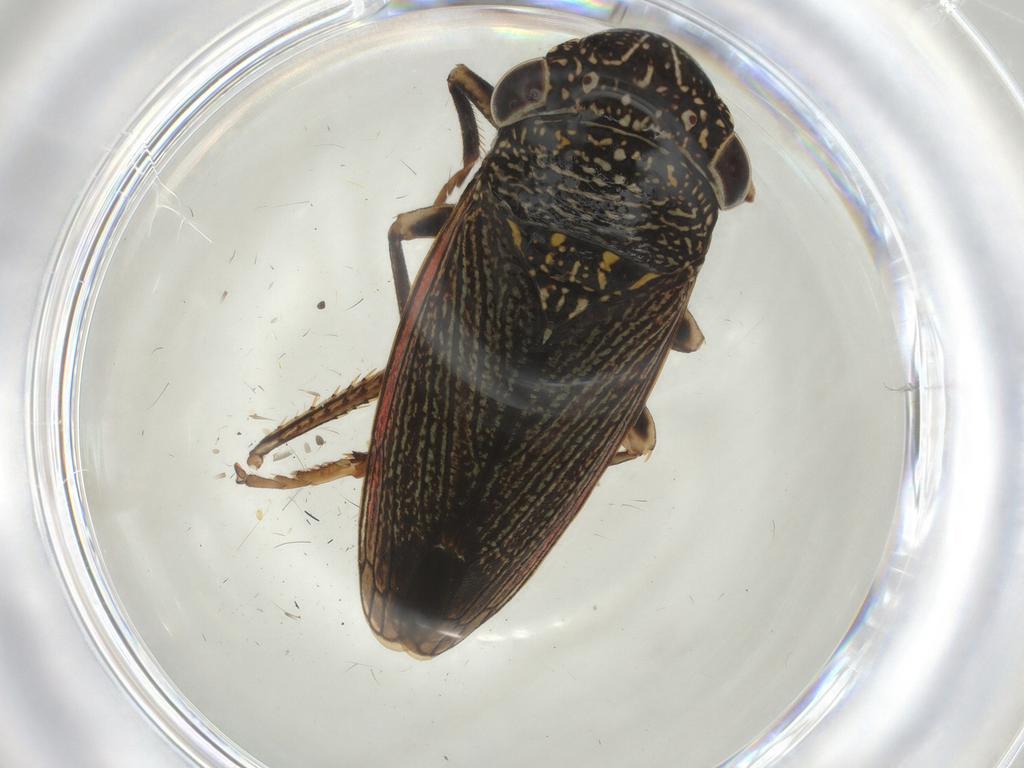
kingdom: Animalia
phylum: Arthropoda
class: Insecta
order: Hemiptera
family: Cicadellidae
